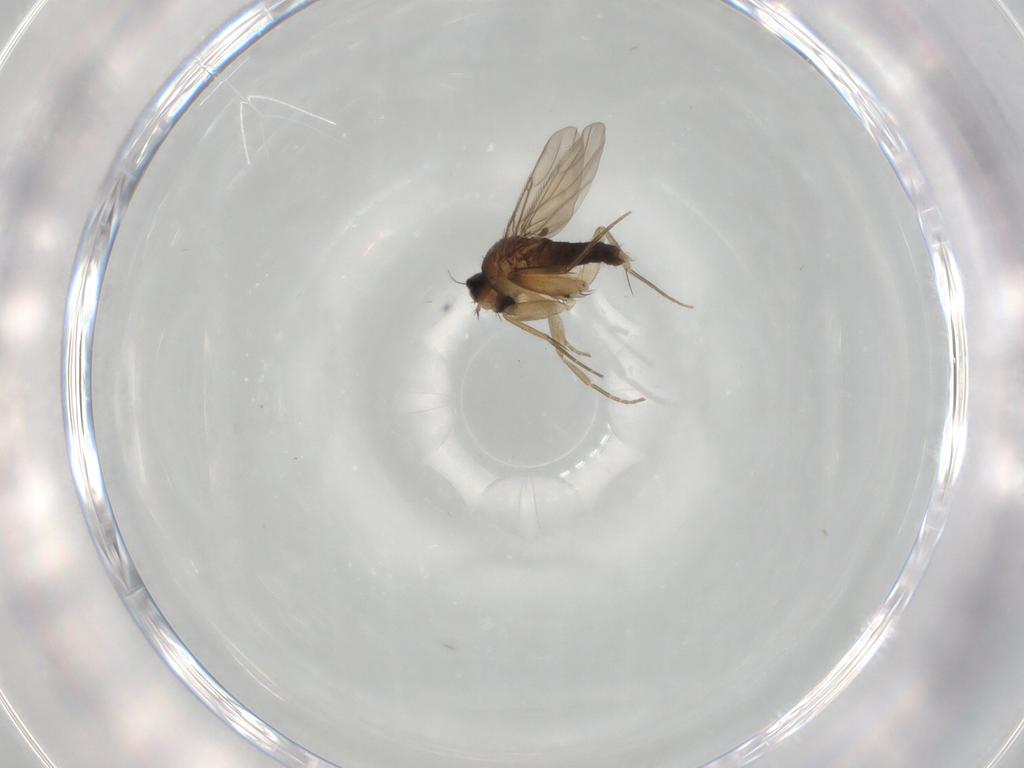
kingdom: Animalia
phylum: Arthropoda
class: Insecta
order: Diptera
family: Phoridae
